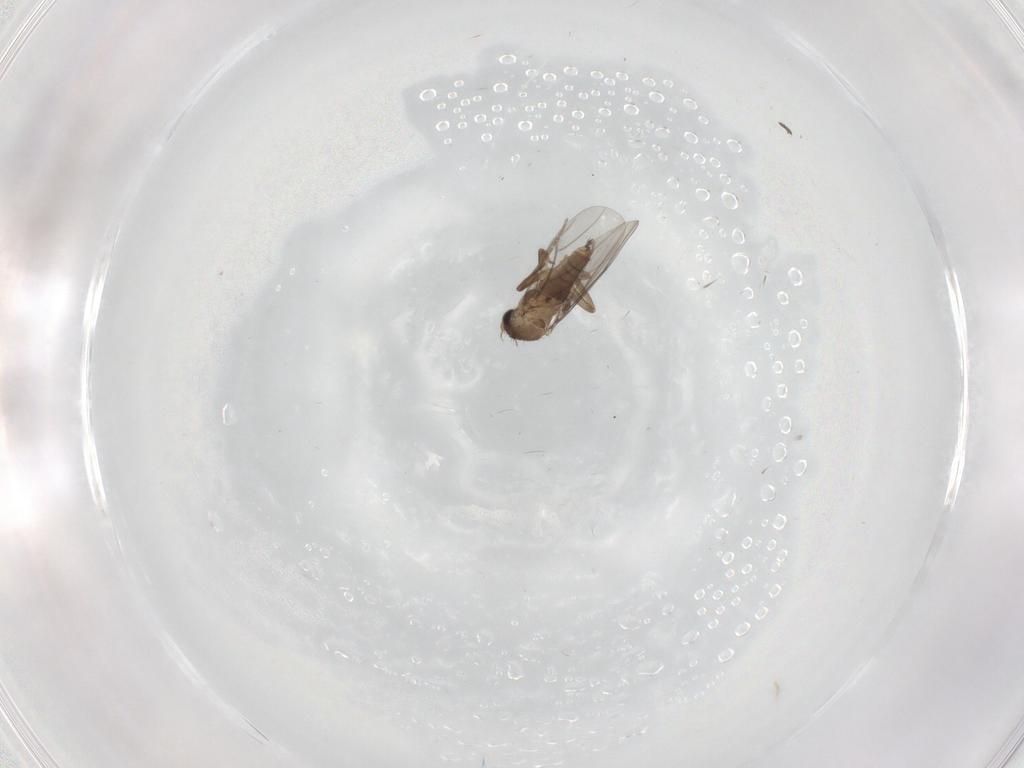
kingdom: Animalia
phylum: Arthropoda
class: Insecta
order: Diptera
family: Limoniidae
